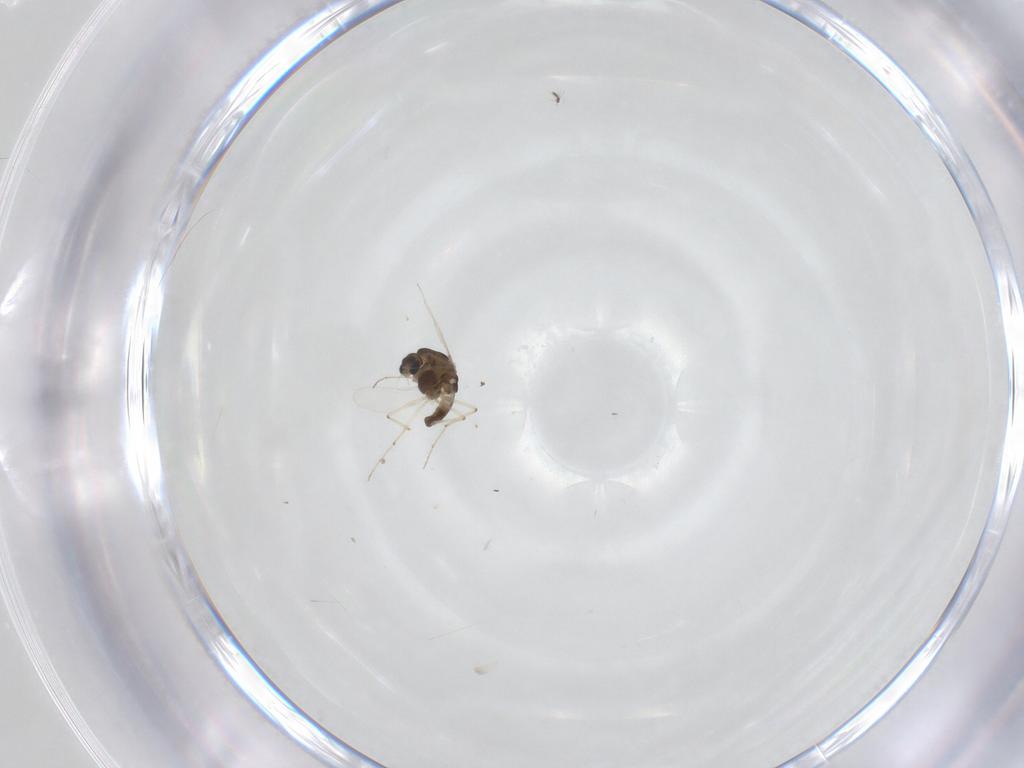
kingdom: Animalia
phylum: Arthropoda
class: Insecta
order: Diptera
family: Chironomidae
